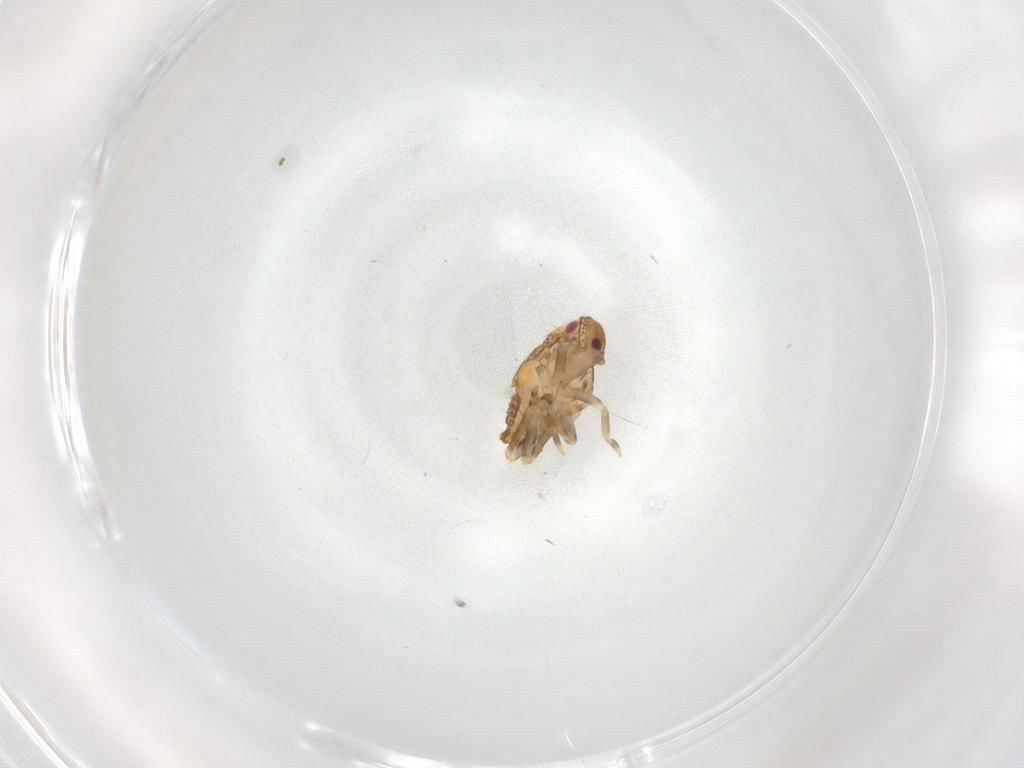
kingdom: Animalia
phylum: Arthropoda
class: Insecta
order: Hemiptera
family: Flatidae
